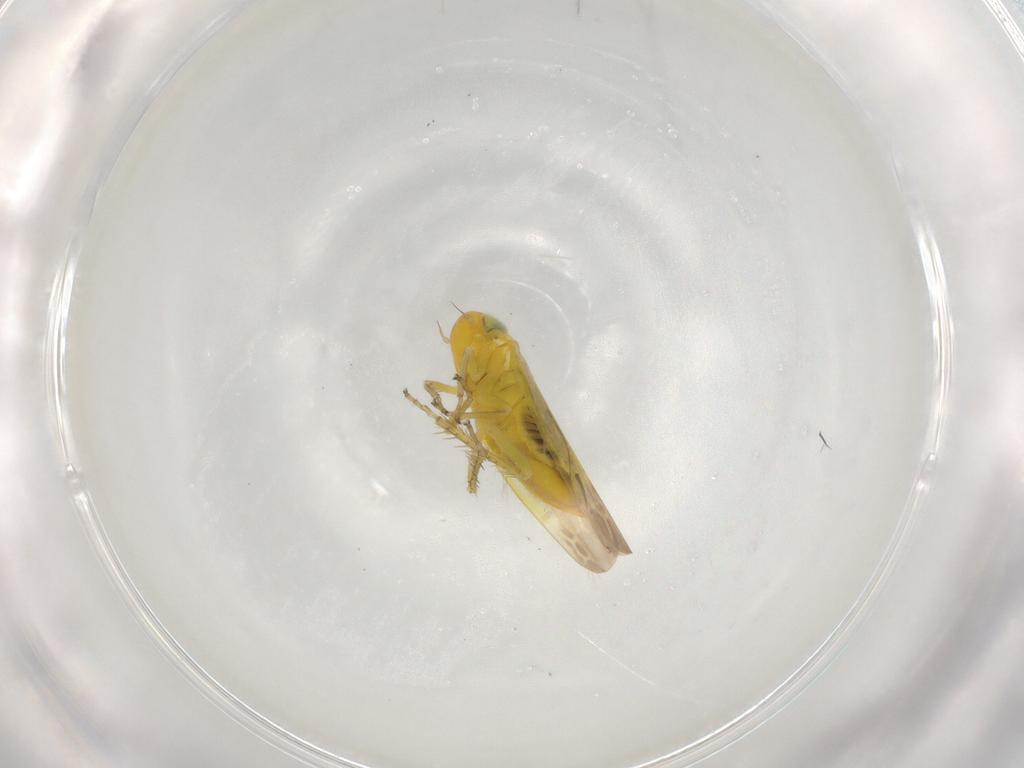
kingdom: Animalia
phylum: Arthropoda
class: Insecta
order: Hemiptera
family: Cicadellidae
